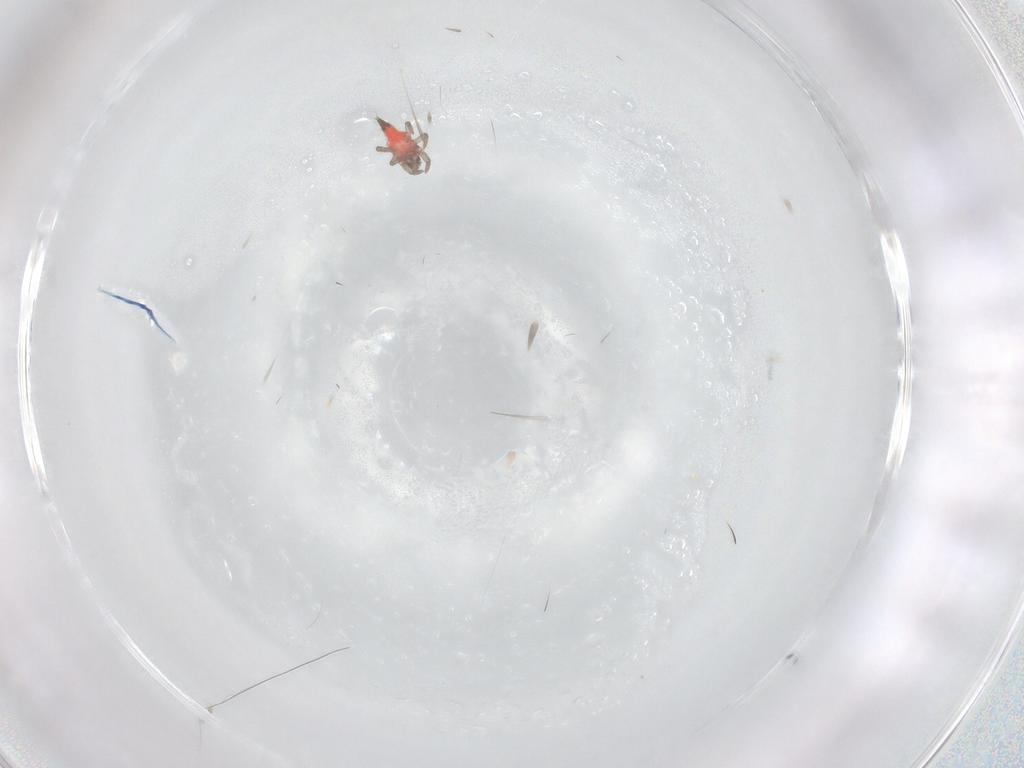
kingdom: Animalia
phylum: Arthropoda
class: Insecta
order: Thysanoptera
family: Phlaeothripidae
